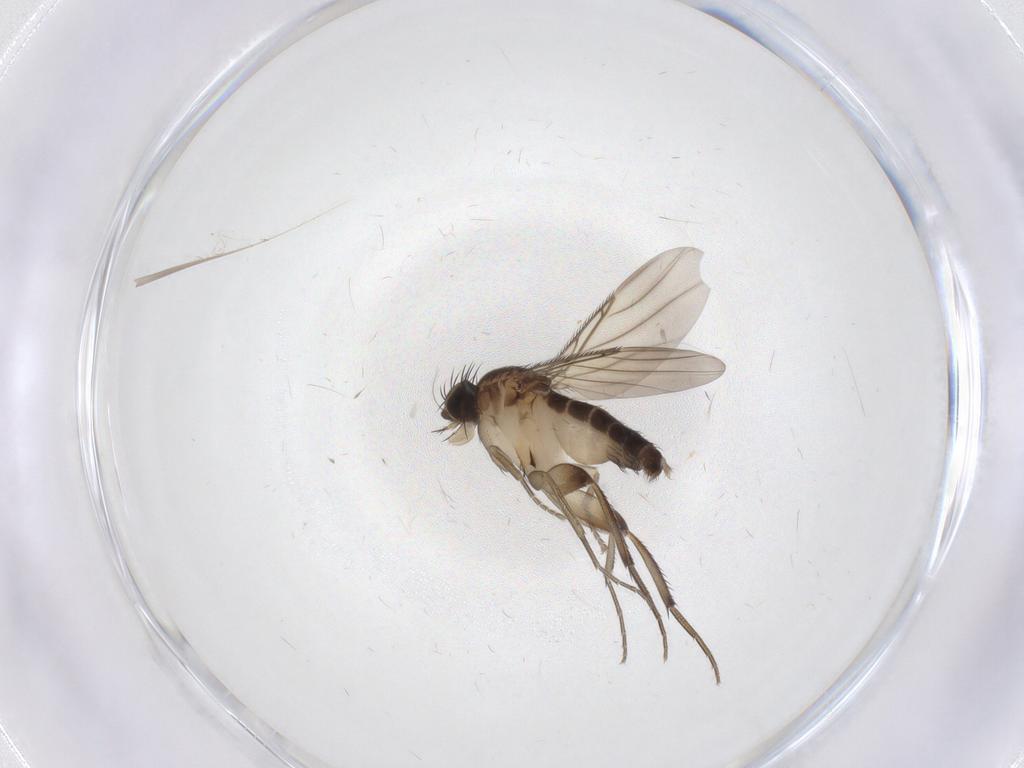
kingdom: Animalia
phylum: Arthropoda
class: Insecta
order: Diptera
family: Phoridae
